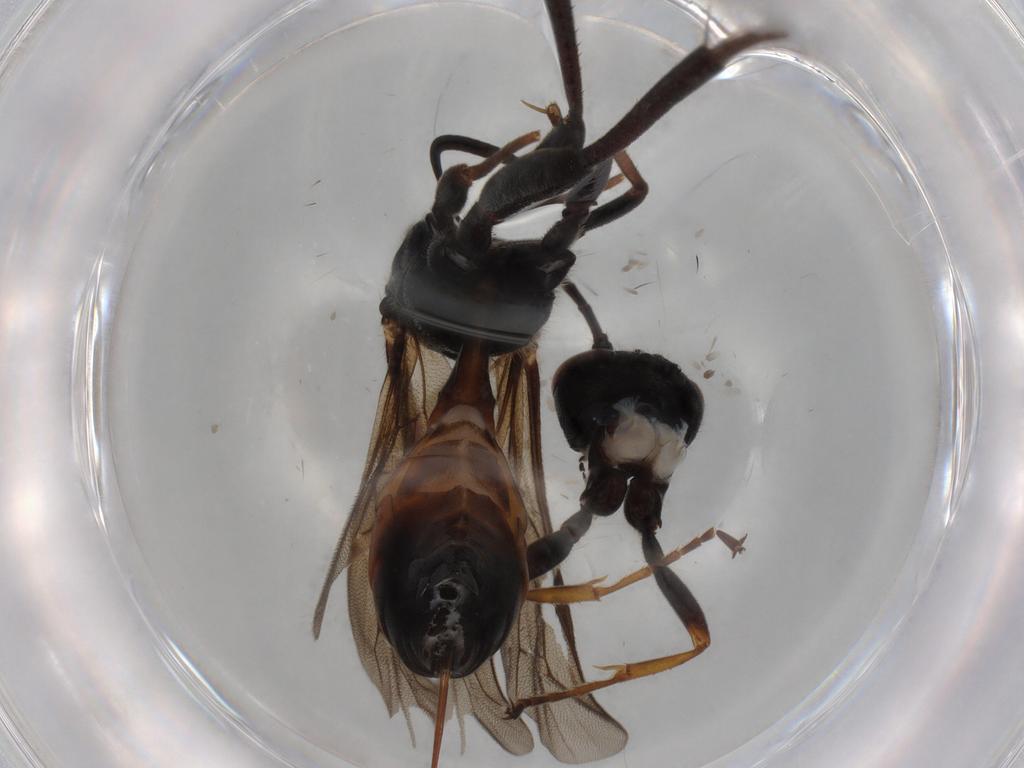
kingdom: Animalia
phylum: Arthropoda
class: Insecta
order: Hymenoptera
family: Ichneumonidae
